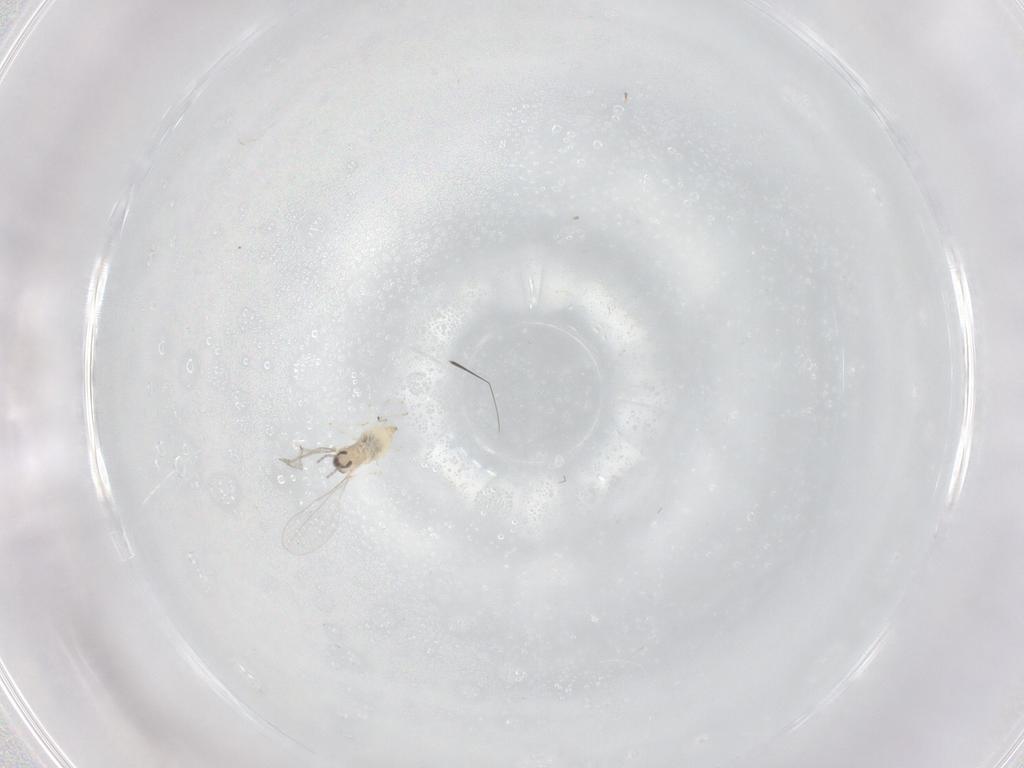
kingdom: Animalia
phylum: Arthropoda
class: Insecta
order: Diptera
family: Cecidomyiidae
